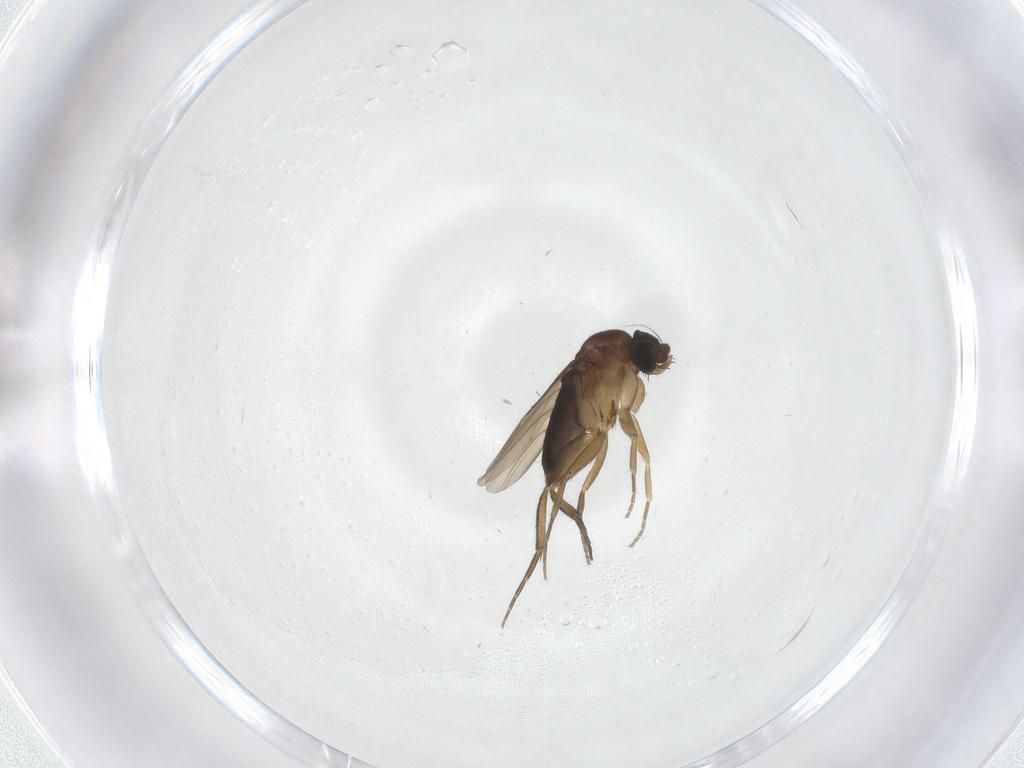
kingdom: Animalia
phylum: Arthropoda
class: Insecta
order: Diptera
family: Phoridae
